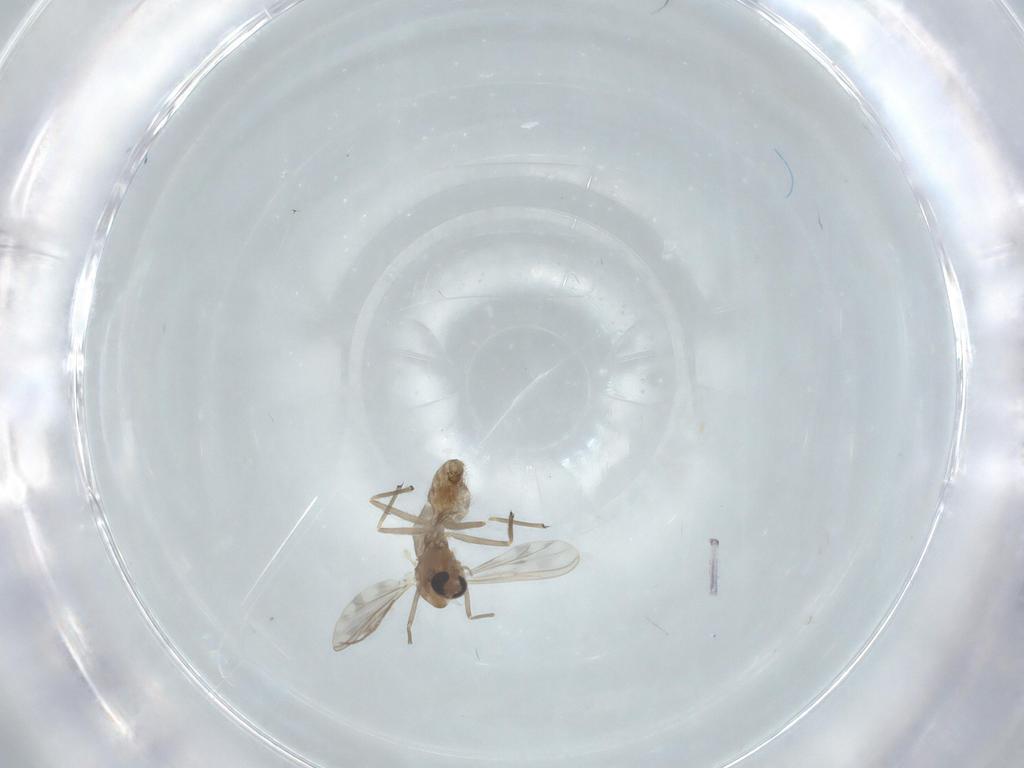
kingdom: Animalia
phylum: Arthropoda
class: Insecta
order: Diptera
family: Chironomidae
